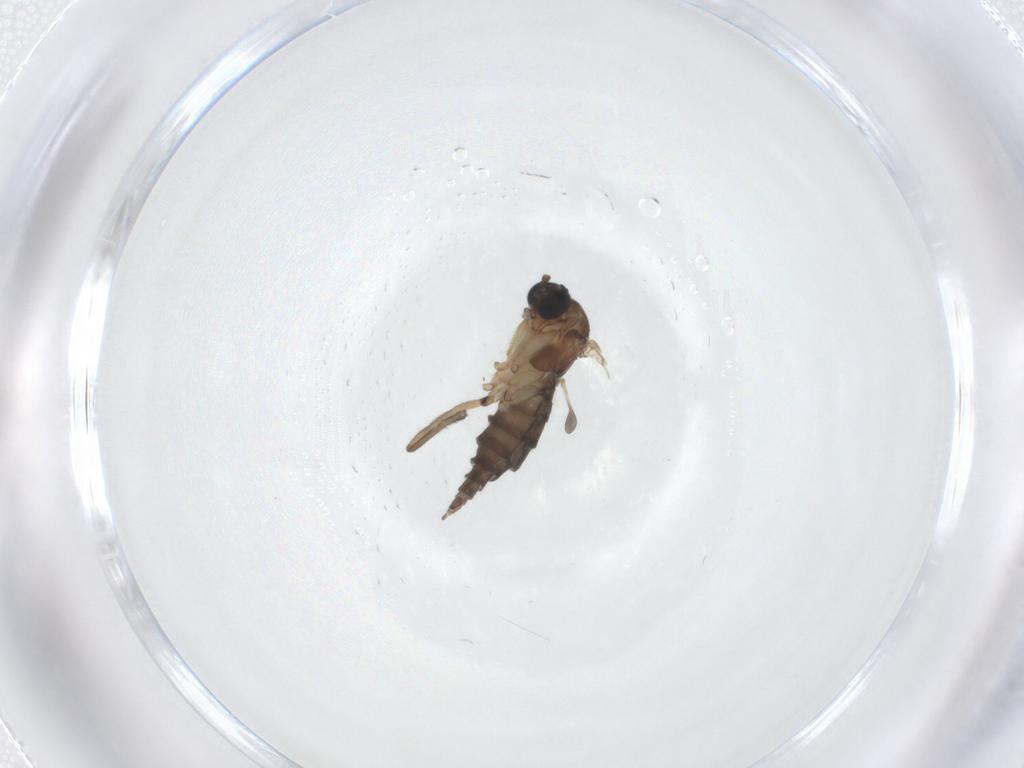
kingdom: Animalia
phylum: Arthropoda
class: Insecta
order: Diptera
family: Sciaridae
